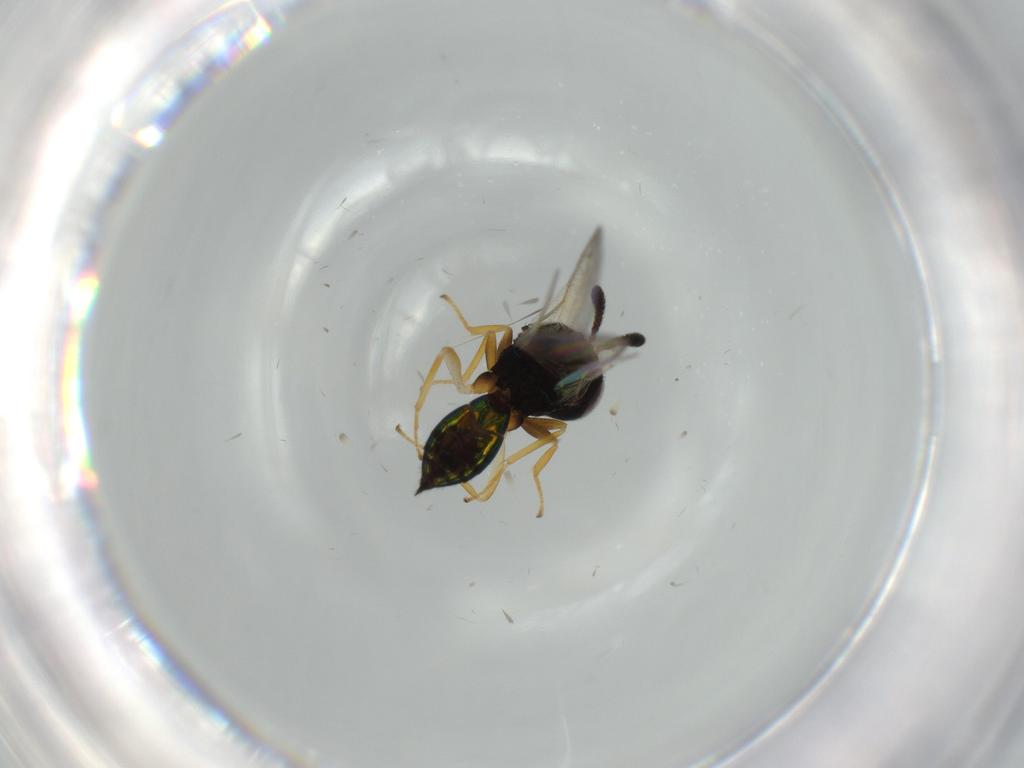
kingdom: Animalia
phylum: Arthropoda
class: Insecta
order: Hymenoptera
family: Pteromalidae
